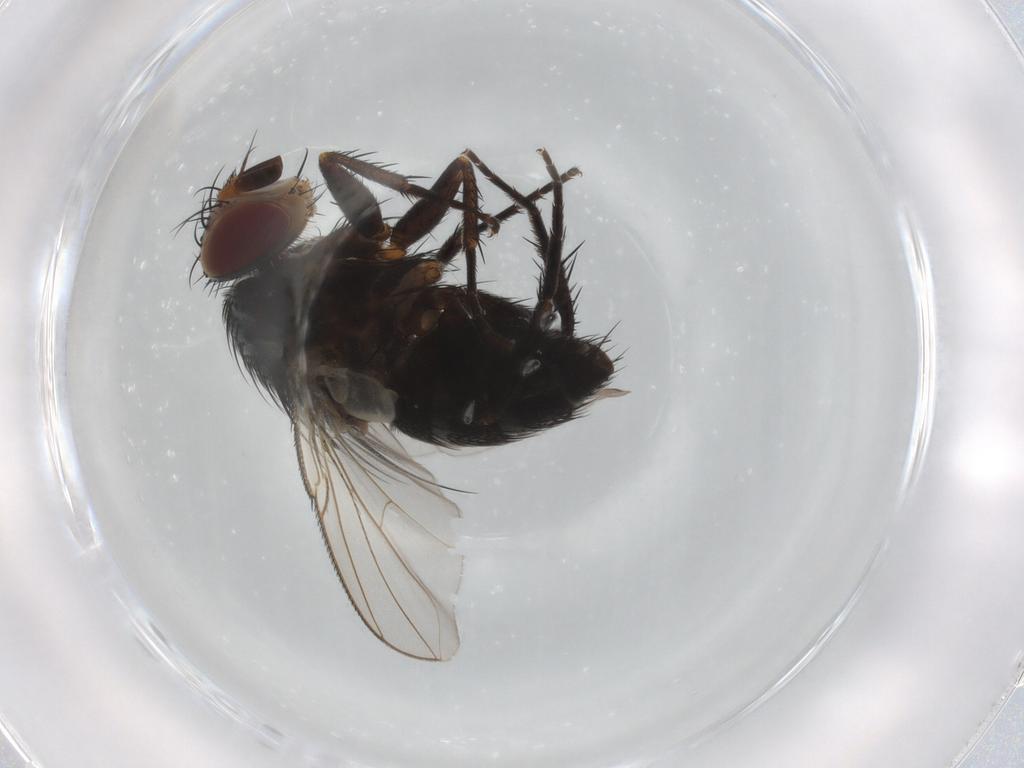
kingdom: Animalia
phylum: Arthropoda
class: Insecta
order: Diptera
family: Tachinidae
